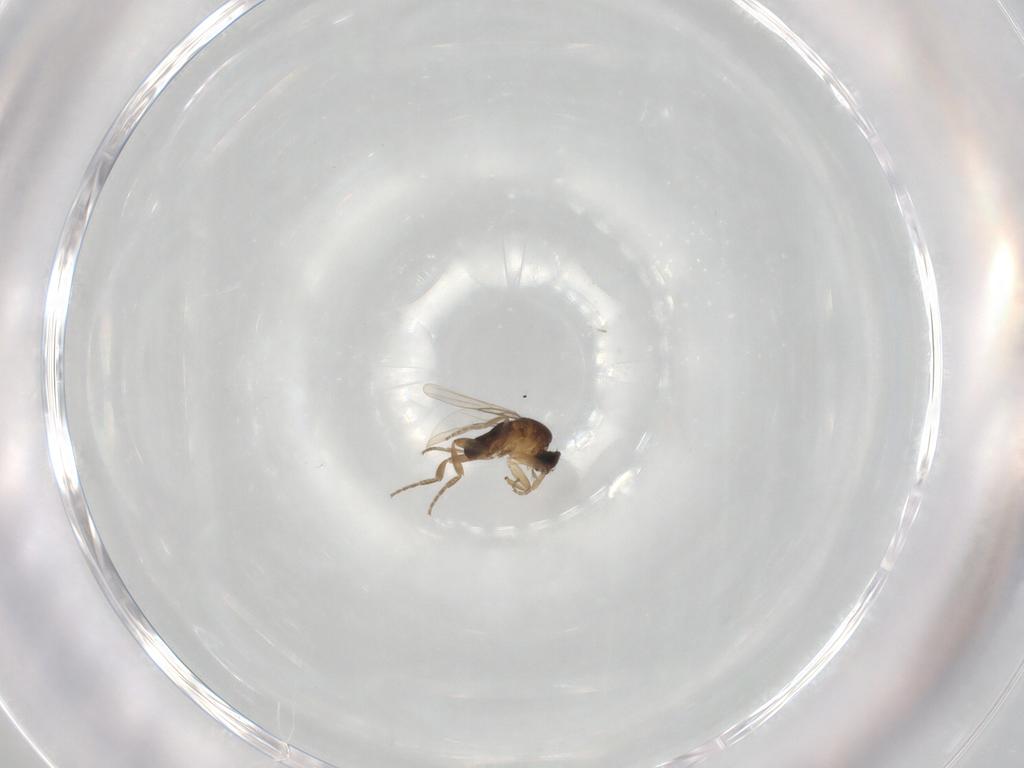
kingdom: Animalia
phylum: Arthropoda
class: Insecta
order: Diptera
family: Phoridae
